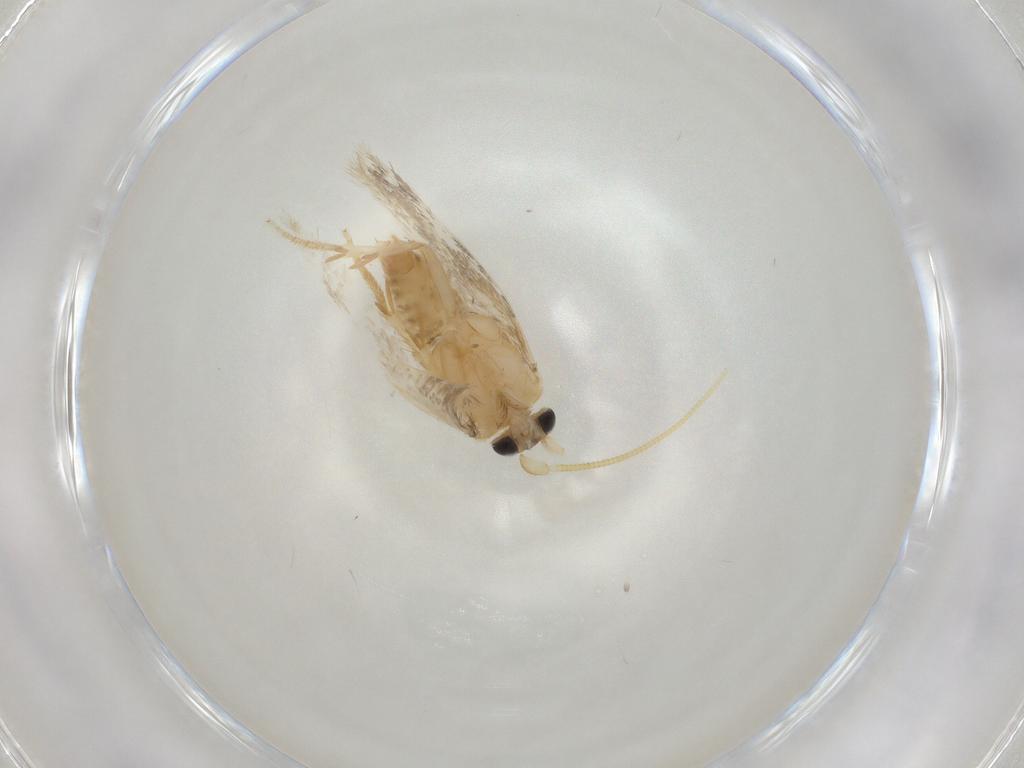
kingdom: Animalia
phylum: Arthropoda
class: Insecta
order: Lepidoptera
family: Nepticulidae
